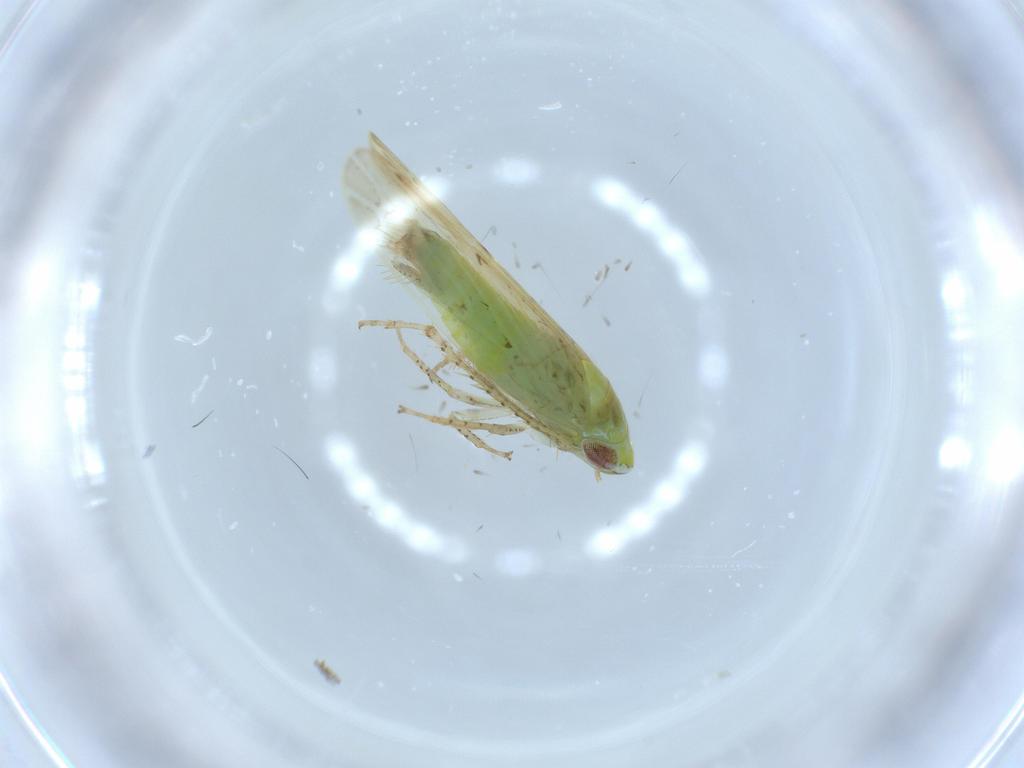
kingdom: Animalia
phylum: Arthropoda
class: Insecta
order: Hemiptera
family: Cicadellidae
